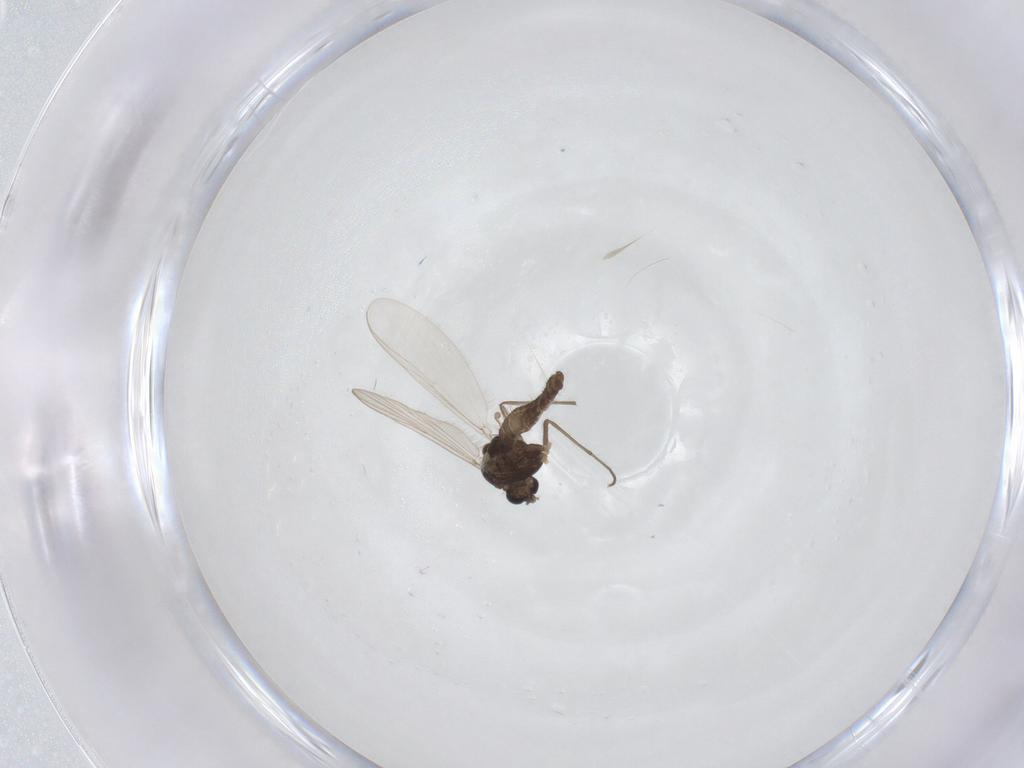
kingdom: Animalia
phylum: Arthropoda
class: Insecta
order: Diptera
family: Chironomidae
